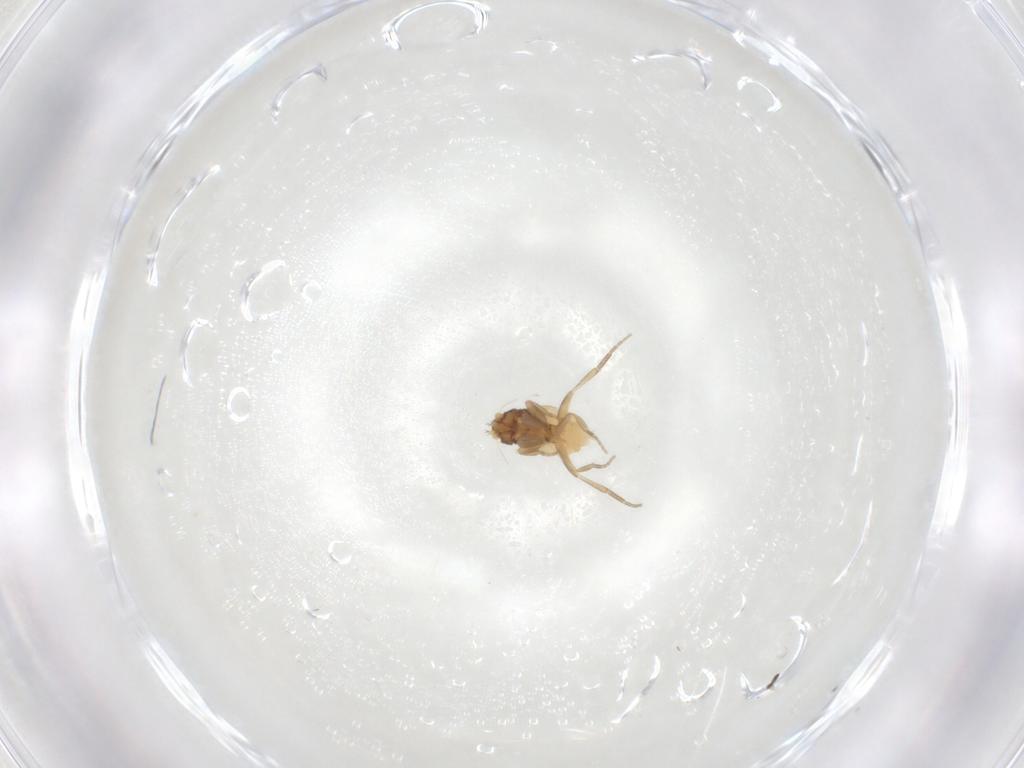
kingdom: Animalia
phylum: Arthropoda
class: Insecta
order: Diptera
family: Phoridae
